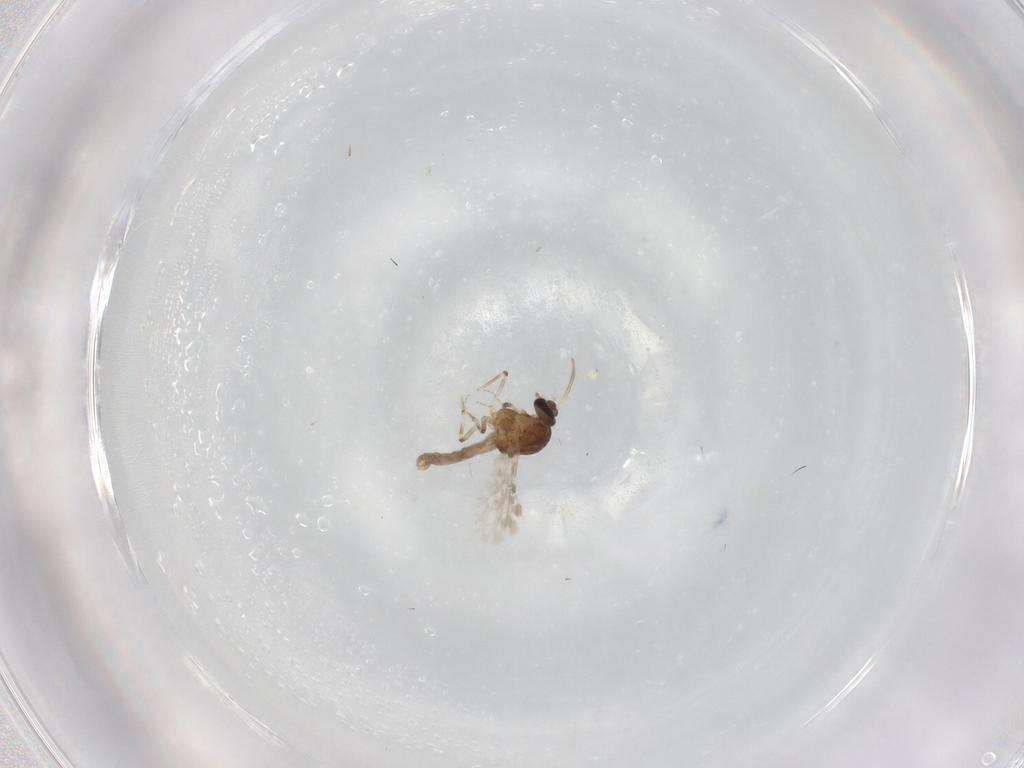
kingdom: Animalia
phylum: Arthropoda
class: Insecta
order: Diptera
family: Ceratopogonidae
